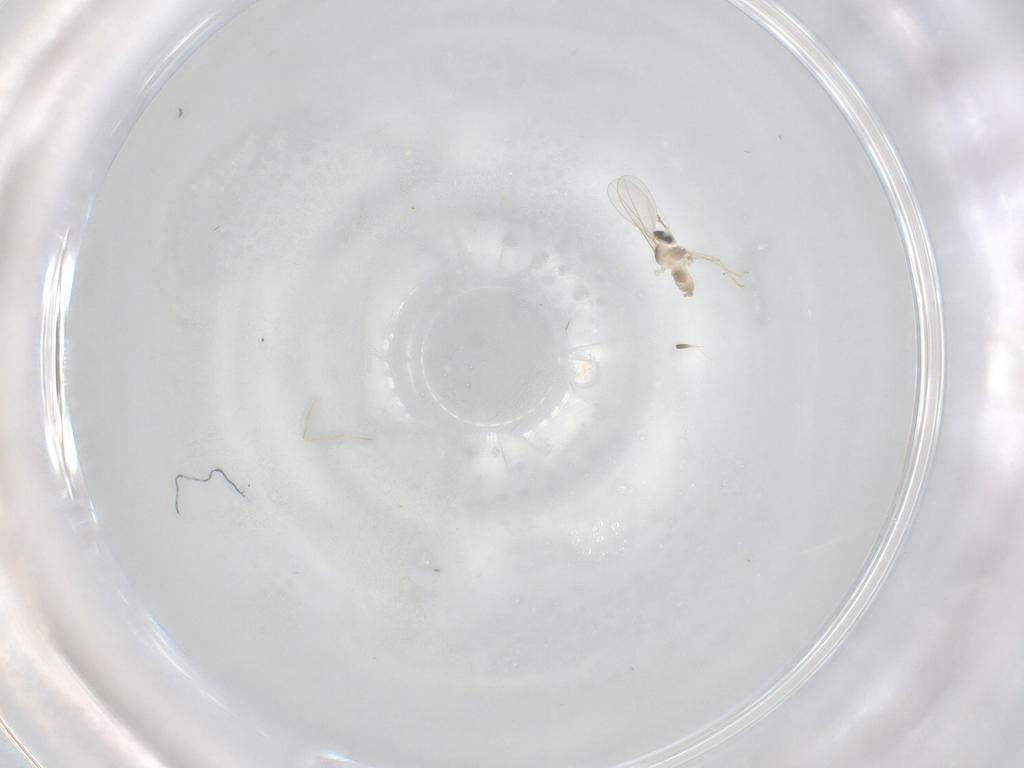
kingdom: Animalia
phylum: Arthropoda
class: Insecta
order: Diptera
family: Cecidomyiidae
